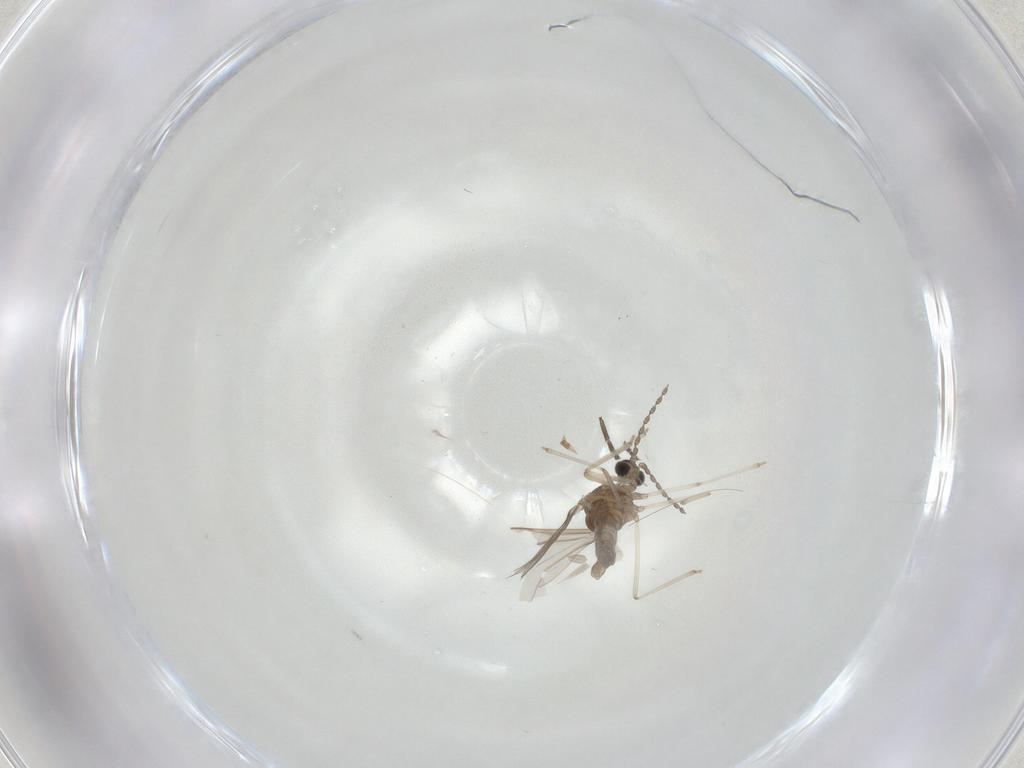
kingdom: Animalia
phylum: Arthropoda
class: Insecta
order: Diptera
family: Cecidomyiidae
